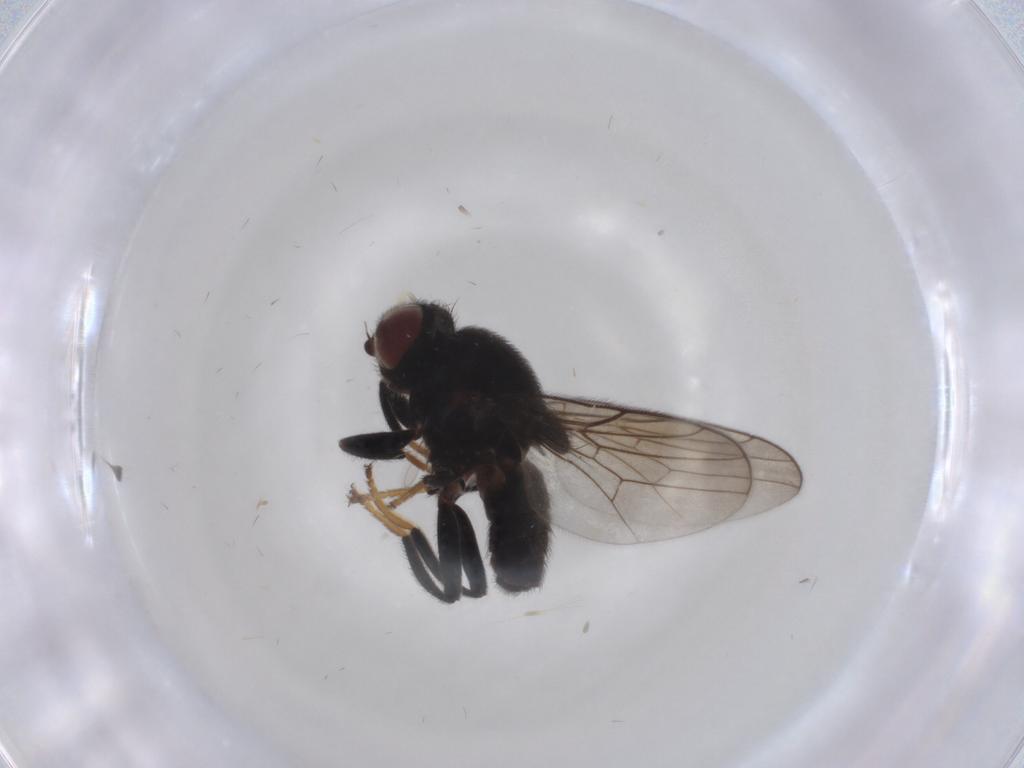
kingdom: Animalia
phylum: Arthropoda
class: Insecta
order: Diptera
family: Chloropidae
